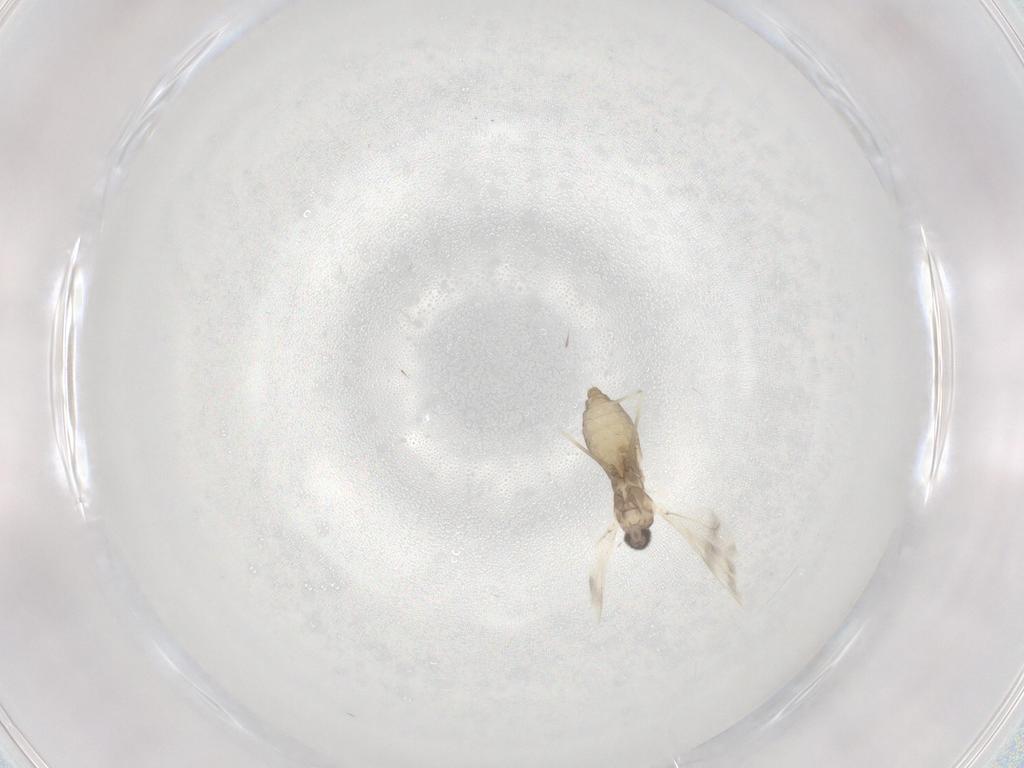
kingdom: Animalia
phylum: Arthropoda
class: Insecta
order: Diptera
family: Cecidomyiidae
